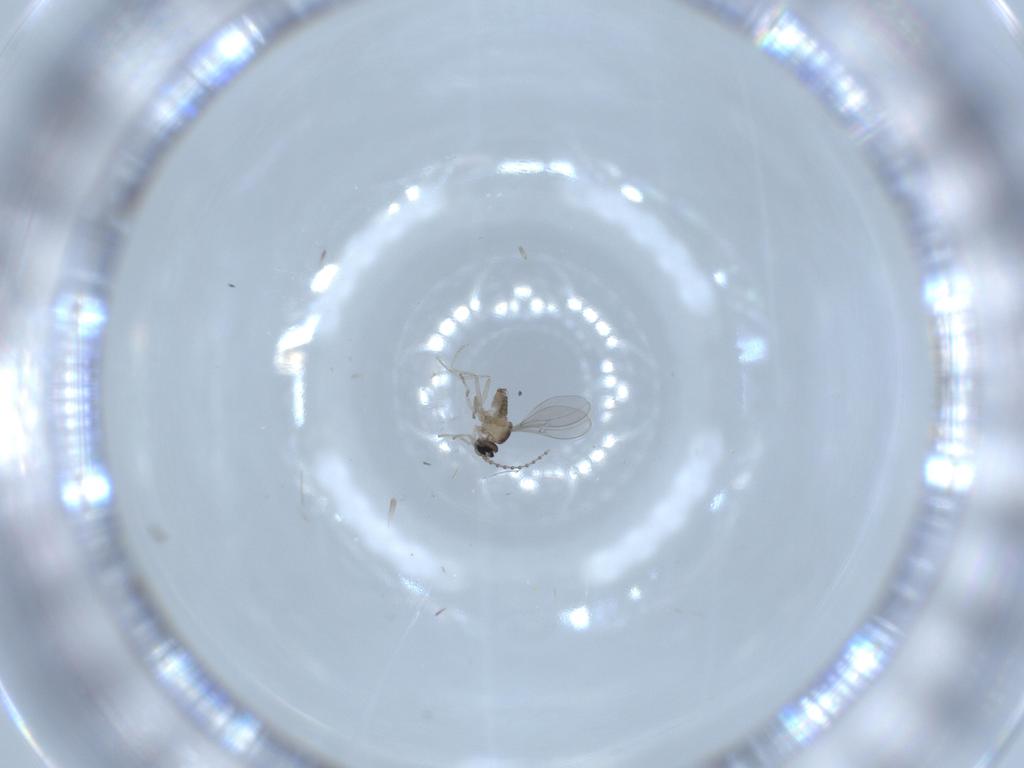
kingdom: Animalia
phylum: Arthropoda
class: Insecta
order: Diptera
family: Cecidomyiidae
